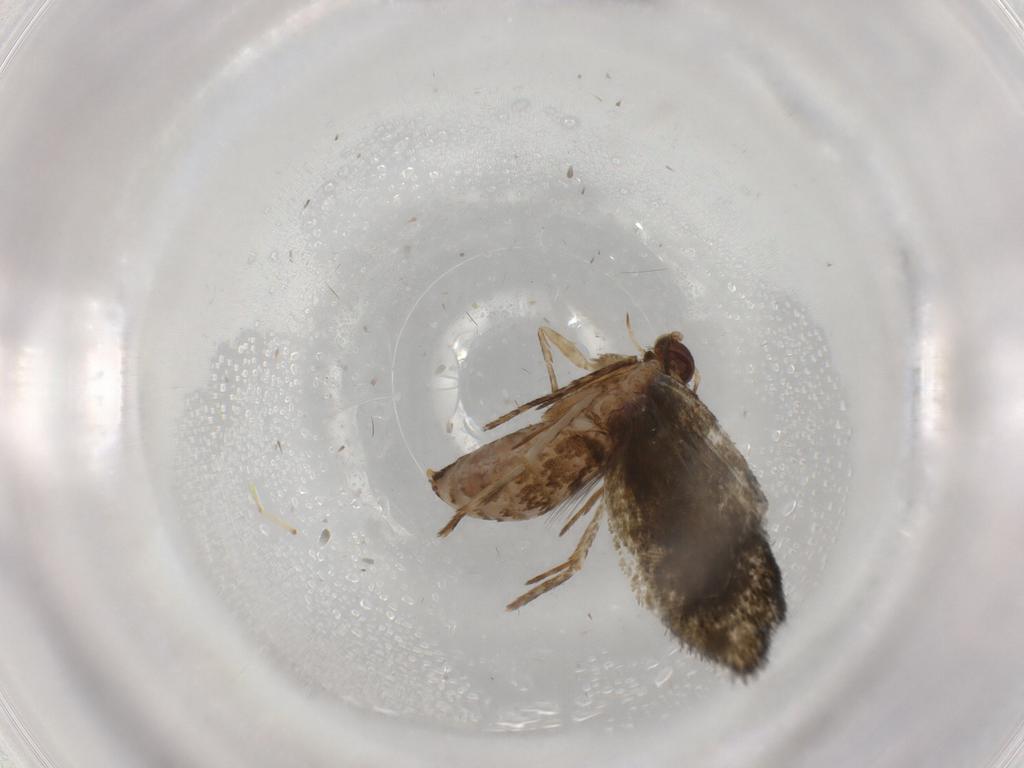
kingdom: Animalia
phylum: Arthropoda
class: Insecta
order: Lepidoptera
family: Tineidae
